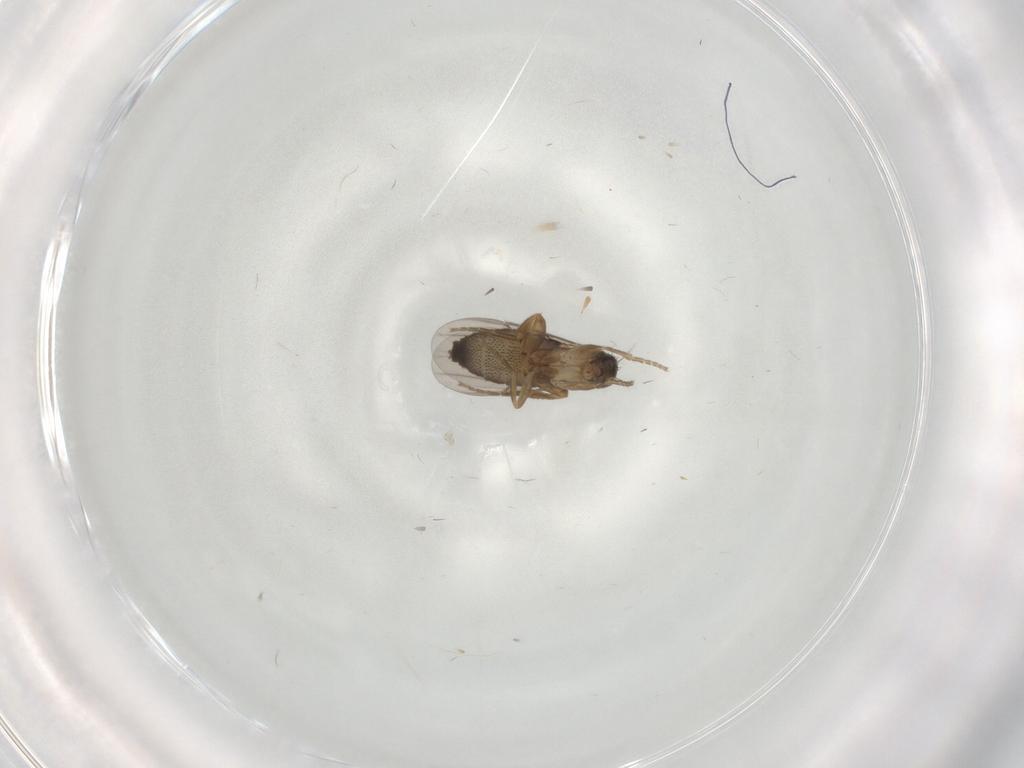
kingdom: Animalia
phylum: Arthropoda
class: Insecta
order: Diptera
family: Phoridae
